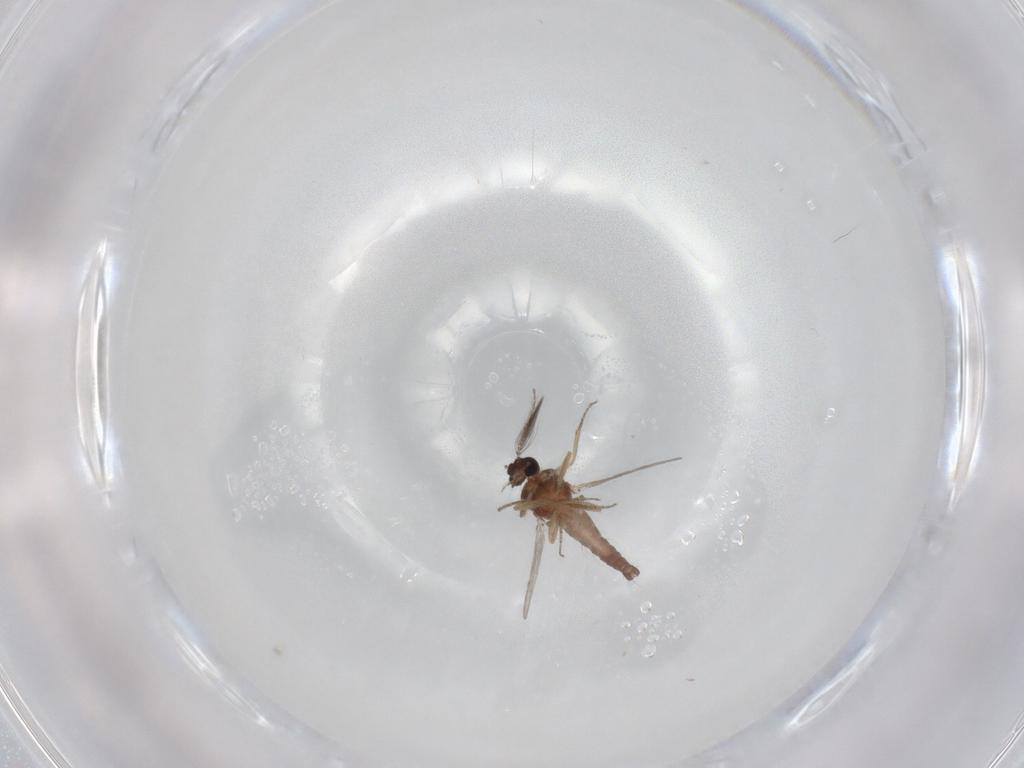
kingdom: Animalia
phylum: Arthropoda
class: Insecta
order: Diptera
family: Ceratopogonidae
